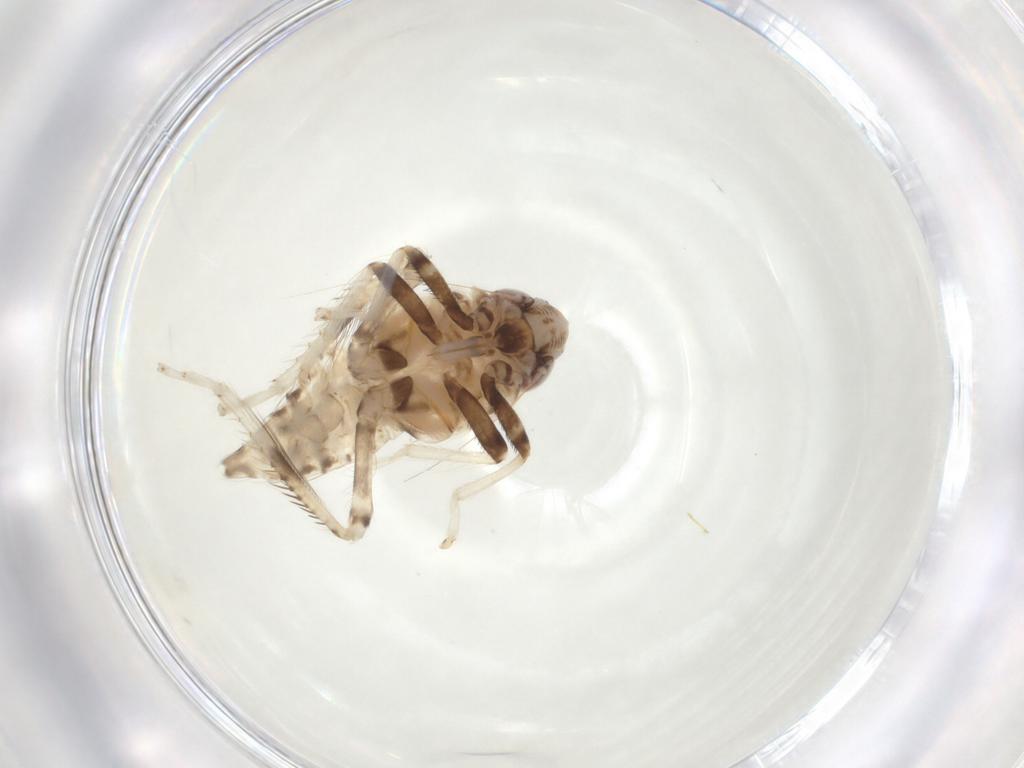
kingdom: Animalia
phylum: Arthropoda
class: Insecta
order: Hemiptera
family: Cicadellidae
